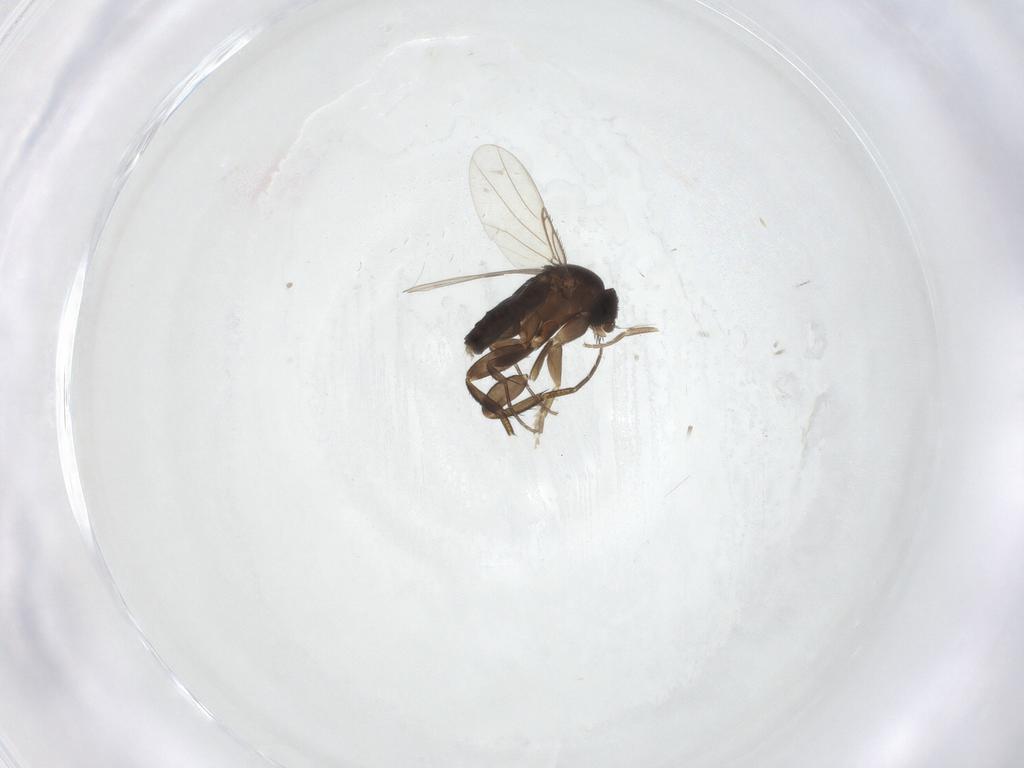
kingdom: Animalia
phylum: Arthropoda
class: Insecta
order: Diptera
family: Phoridae
